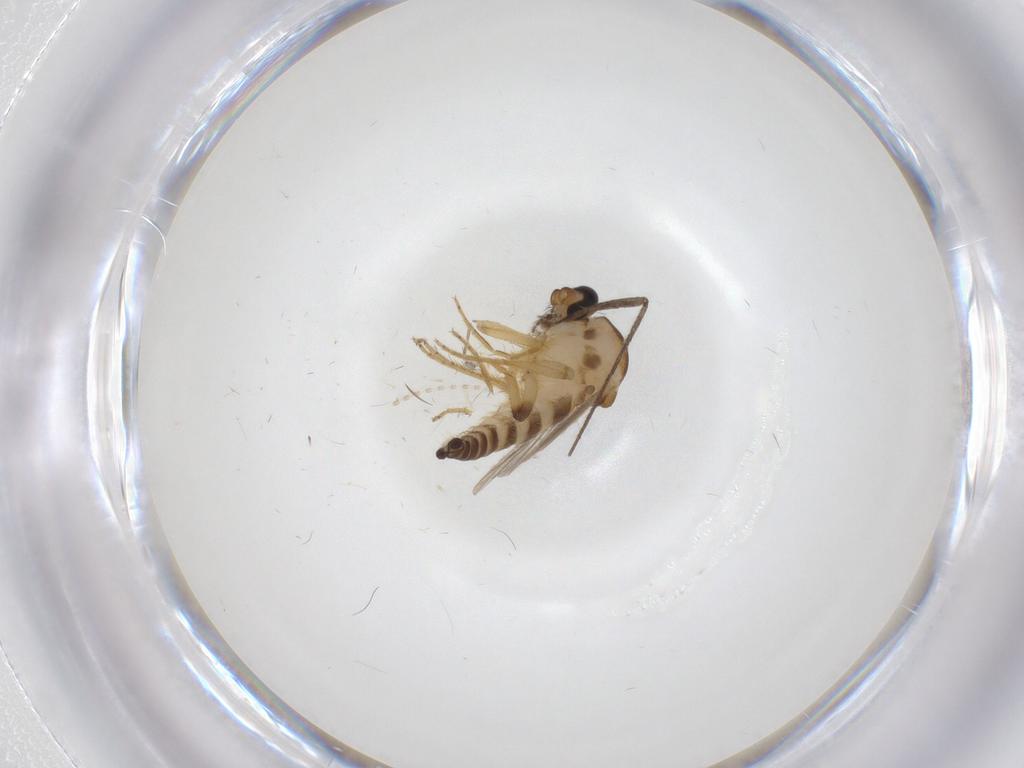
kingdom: Animalia
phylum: Arthropoda
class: Insecta
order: Diptera
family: Ceratopogonidae
